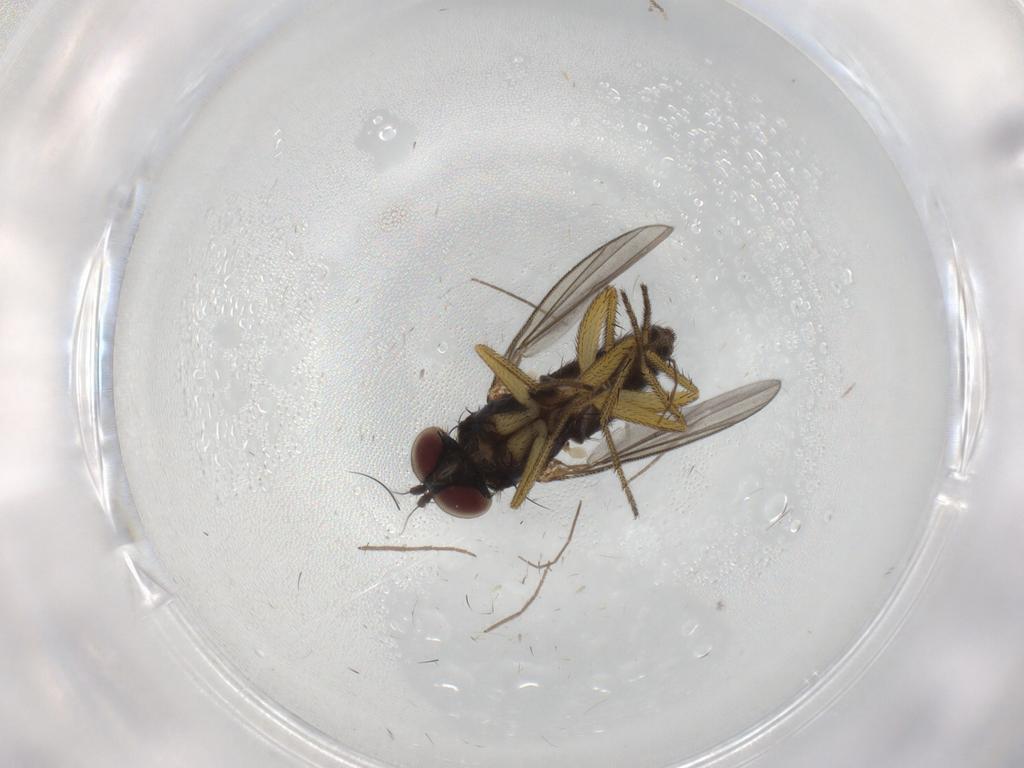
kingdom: Animalia
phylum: Arthropoda
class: Insecta
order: Diptera
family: Chironomidae
